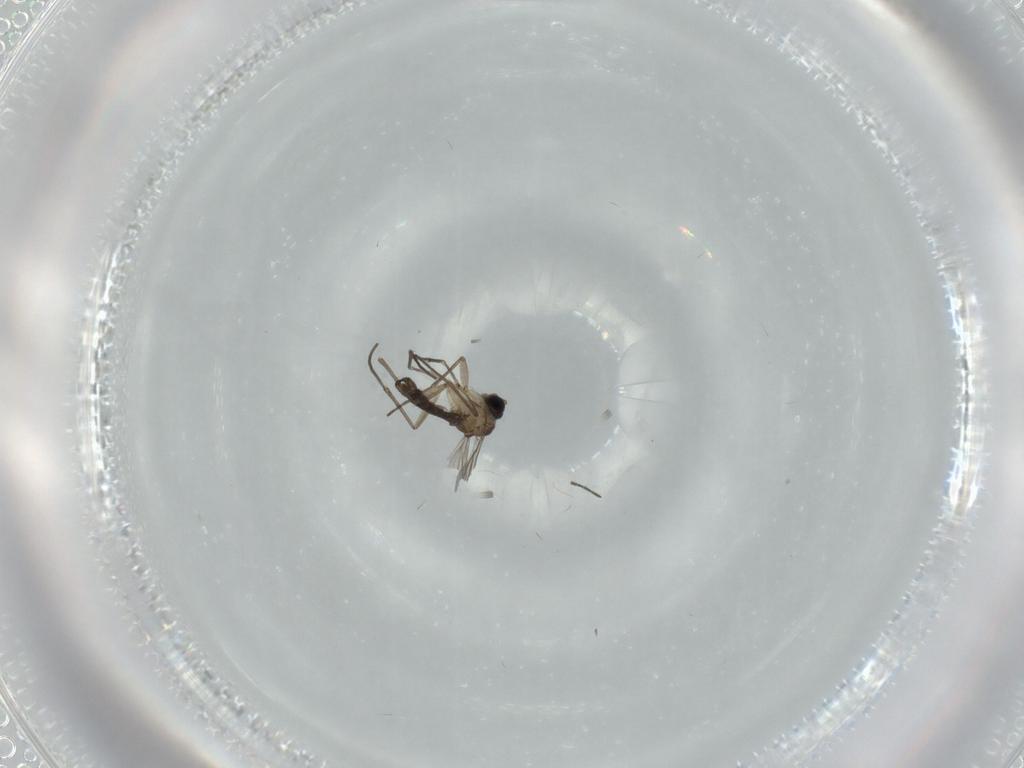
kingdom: Animalia
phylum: Arthropoda
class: Insecta
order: Diptera
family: Sciaridae
